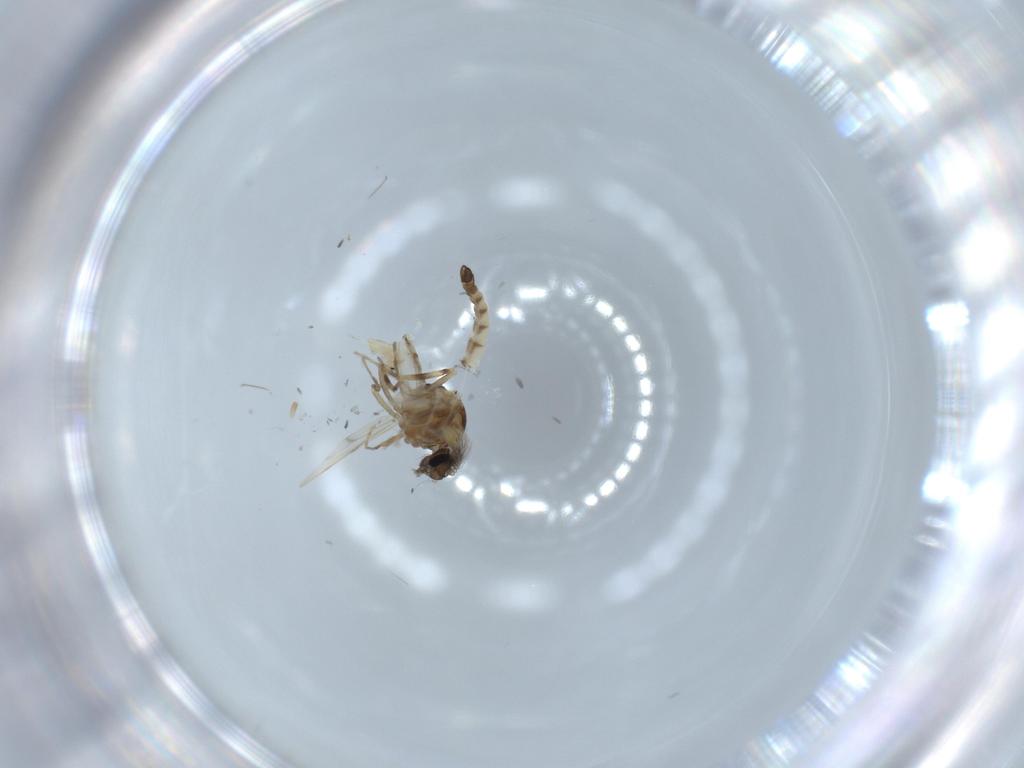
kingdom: Animalia
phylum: Arthropoda
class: Insecta
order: Diptera
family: Ceratopogonidae
